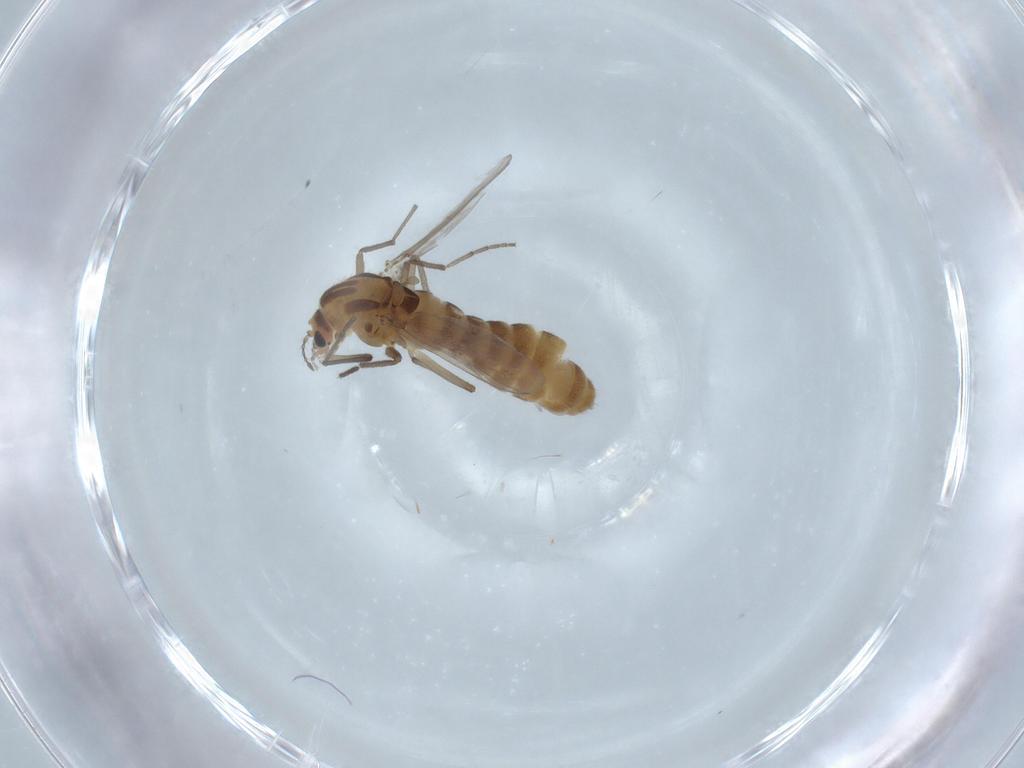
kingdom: Animalia
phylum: Arthropoda
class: Insecta
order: Diptera
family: Chironomidae
